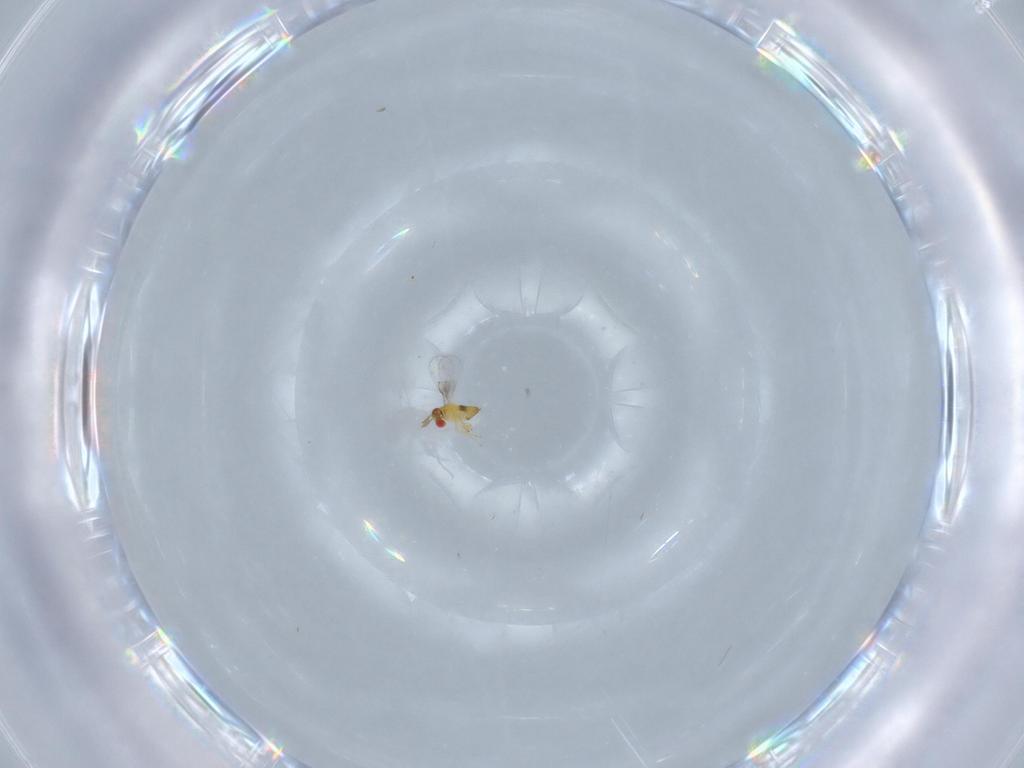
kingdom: Animalia
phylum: Arthropoda
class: Insecta
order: Hymenoptera
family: Trichogrammatidae
